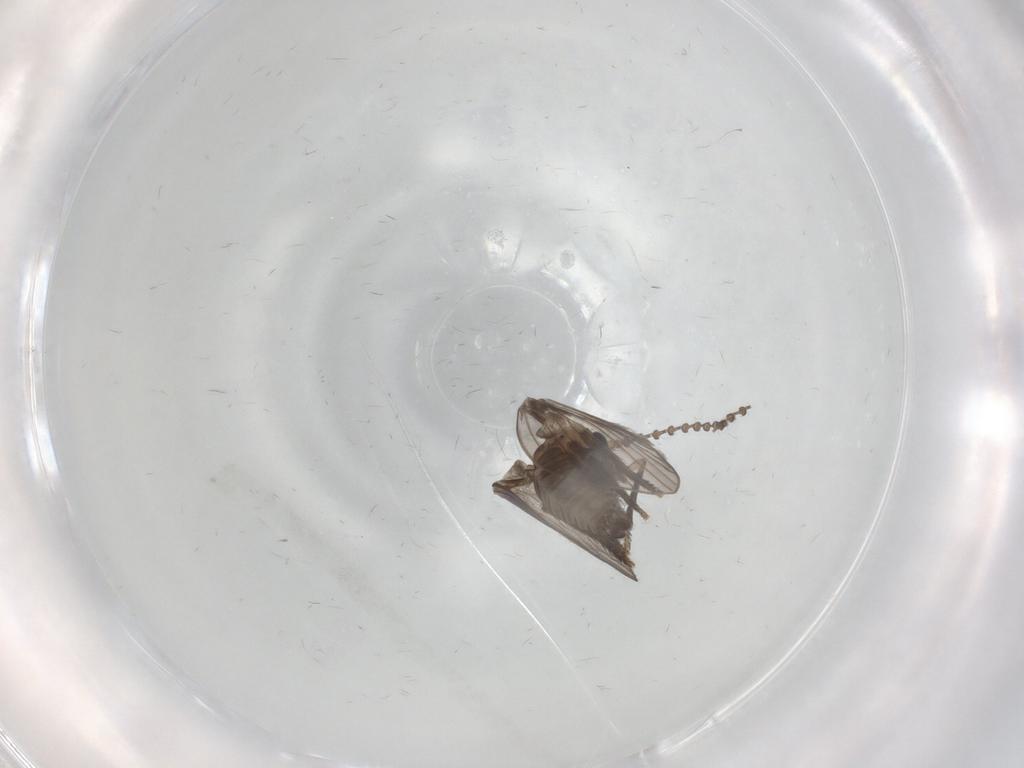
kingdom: Animalia
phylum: Arthropoda
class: Insecta
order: Diptera
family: Psychodidae
